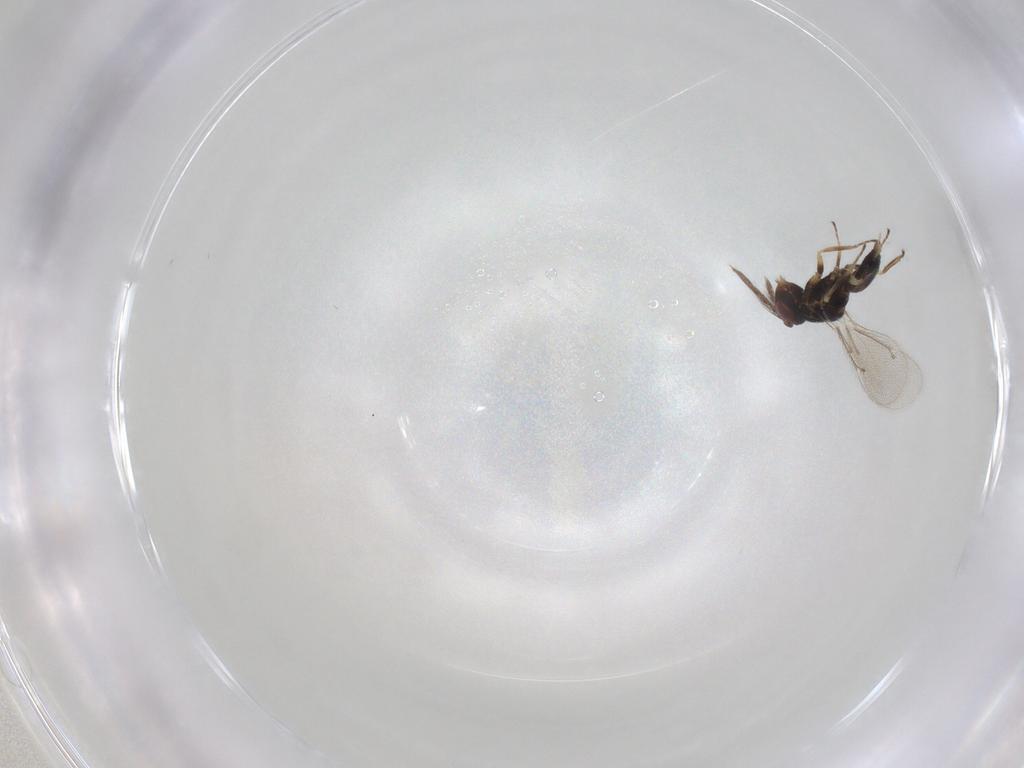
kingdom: Animalia
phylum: Arthropoda
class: Insecta
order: Hymenoptera
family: Eulophidae
